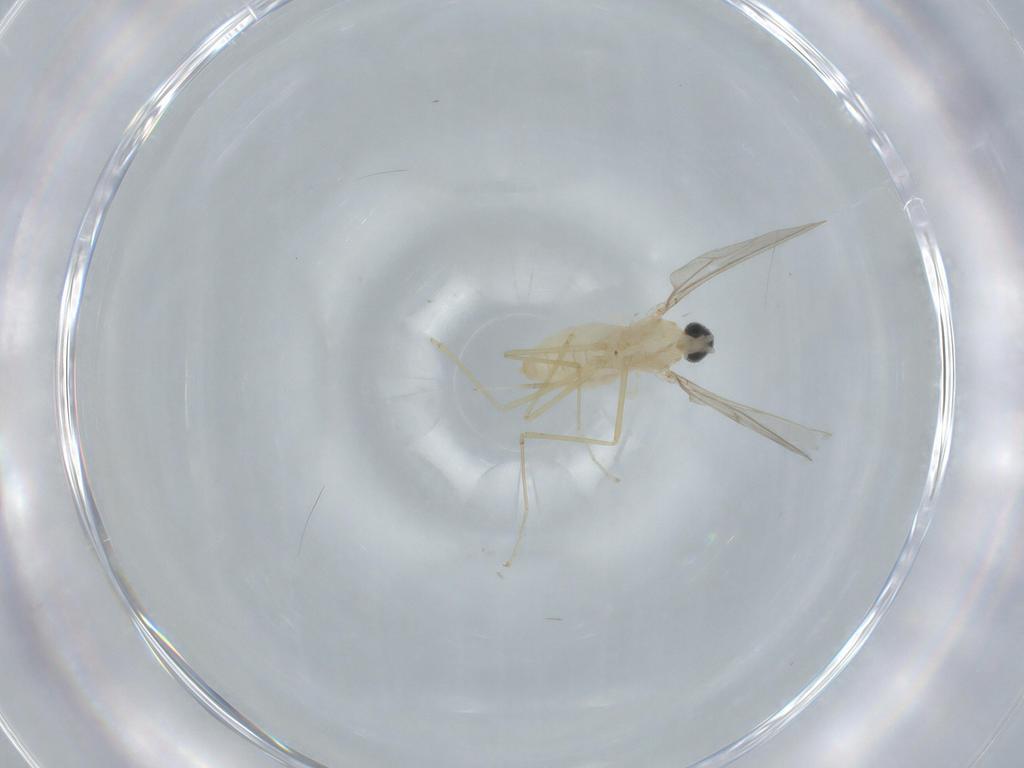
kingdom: Animalia
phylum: Arthropoda
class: Insecta
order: Diptera
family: Cecidomyiidae
